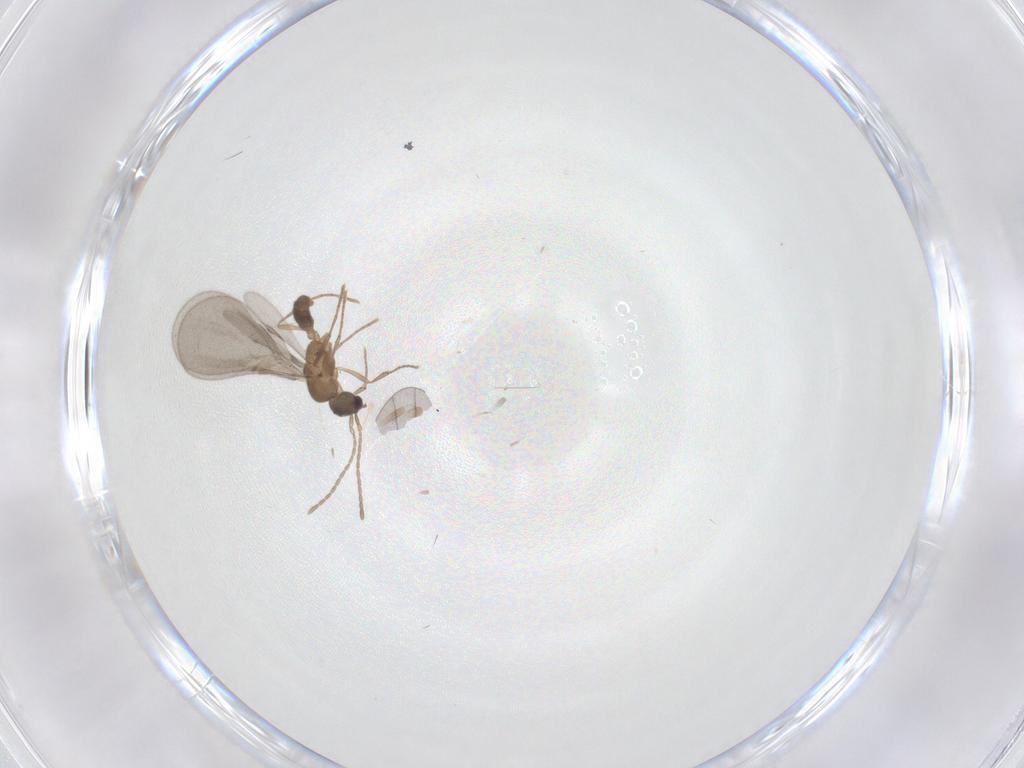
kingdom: Animalia
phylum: Arthropoda
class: Insecta
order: Hymenoptera
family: Formicidae
